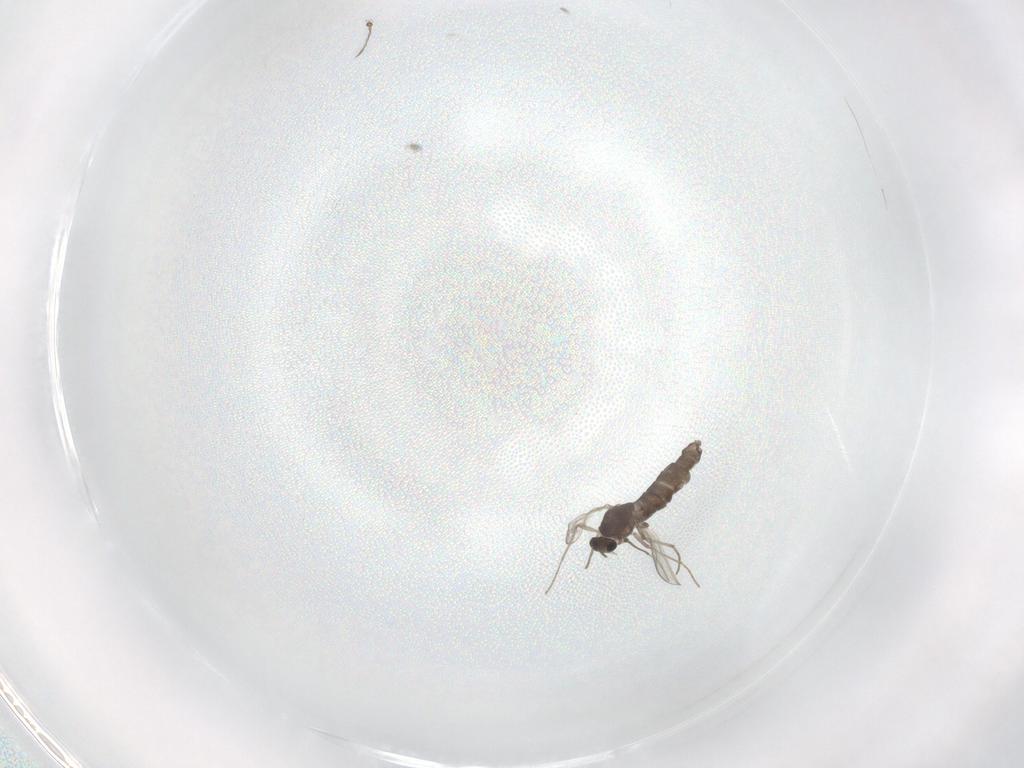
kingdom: Animalia
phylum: Arthropoda
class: Insecta
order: Diptera
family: Chironomidae
